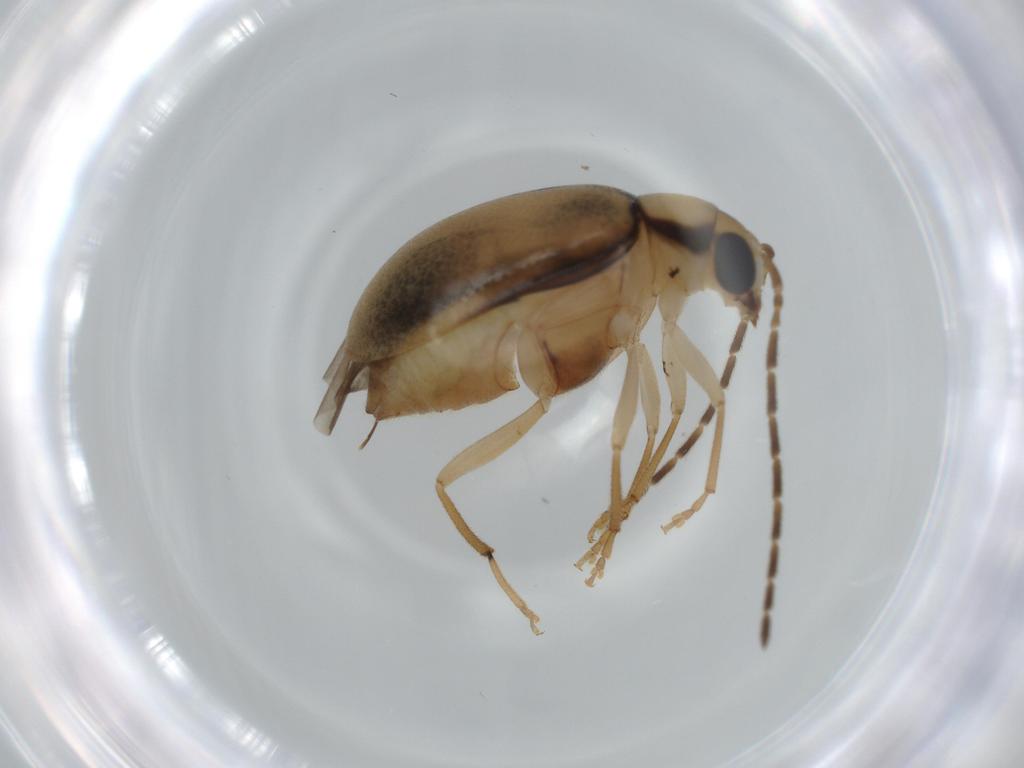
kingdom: Animalia
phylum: Arthropoda
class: Insecta
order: Coleoptera
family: Chrysomelidae
